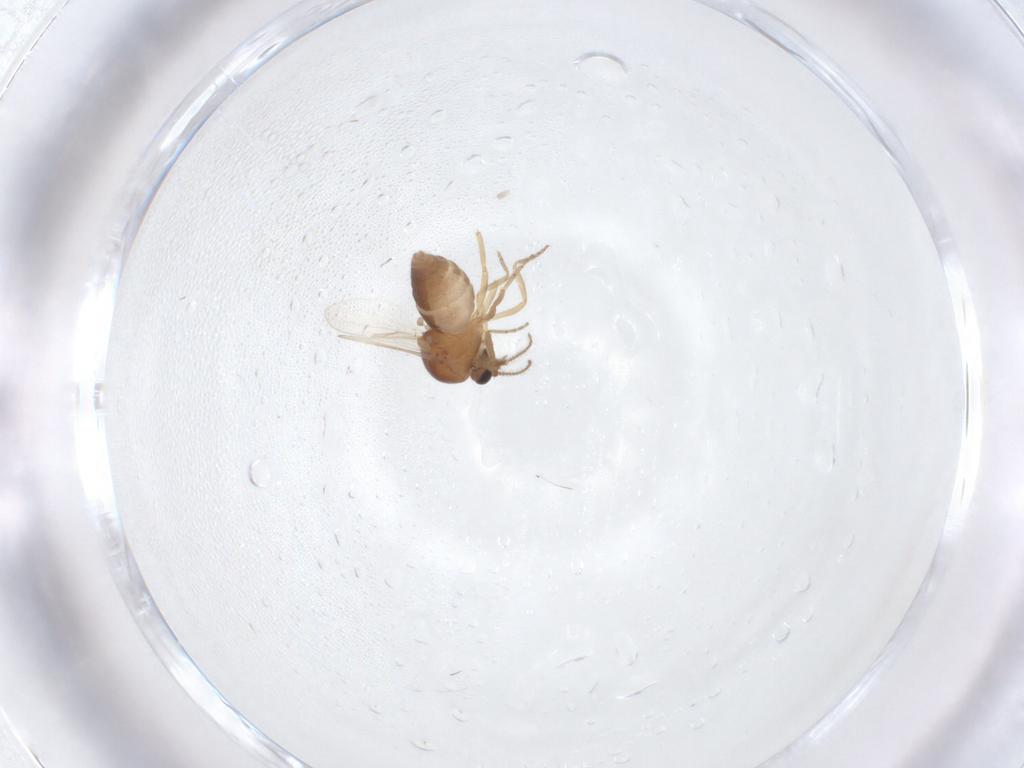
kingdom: Animalia
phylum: Arthropoda
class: Insecta
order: Diptera
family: Ceratopogonidae
